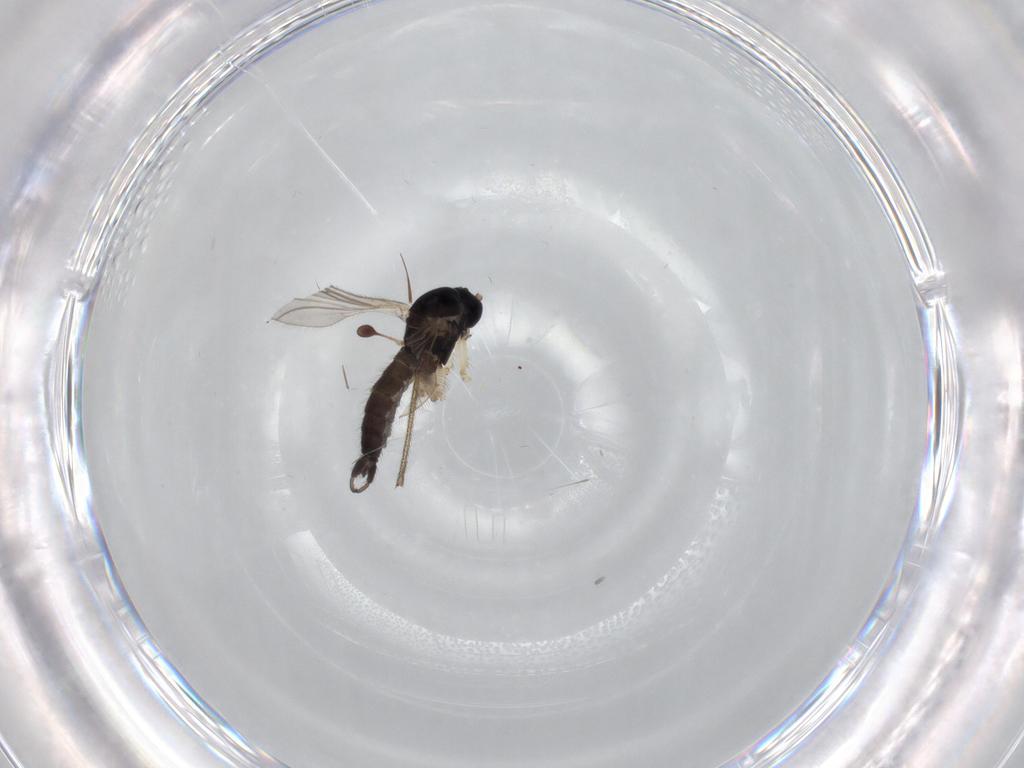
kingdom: Animalia
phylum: Arthropoda
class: Insecta
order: Diptera
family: Sciaridae
